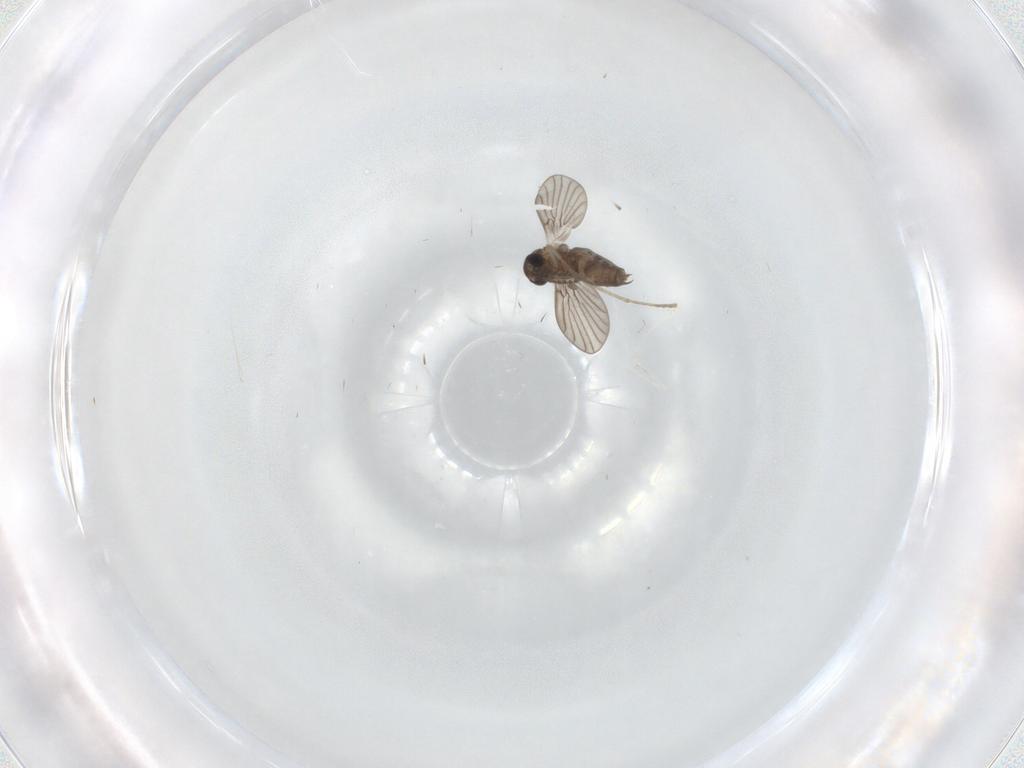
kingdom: Animalia
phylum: Arthropoda
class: Insecta
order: Diptera
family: Cecidomyiidae
